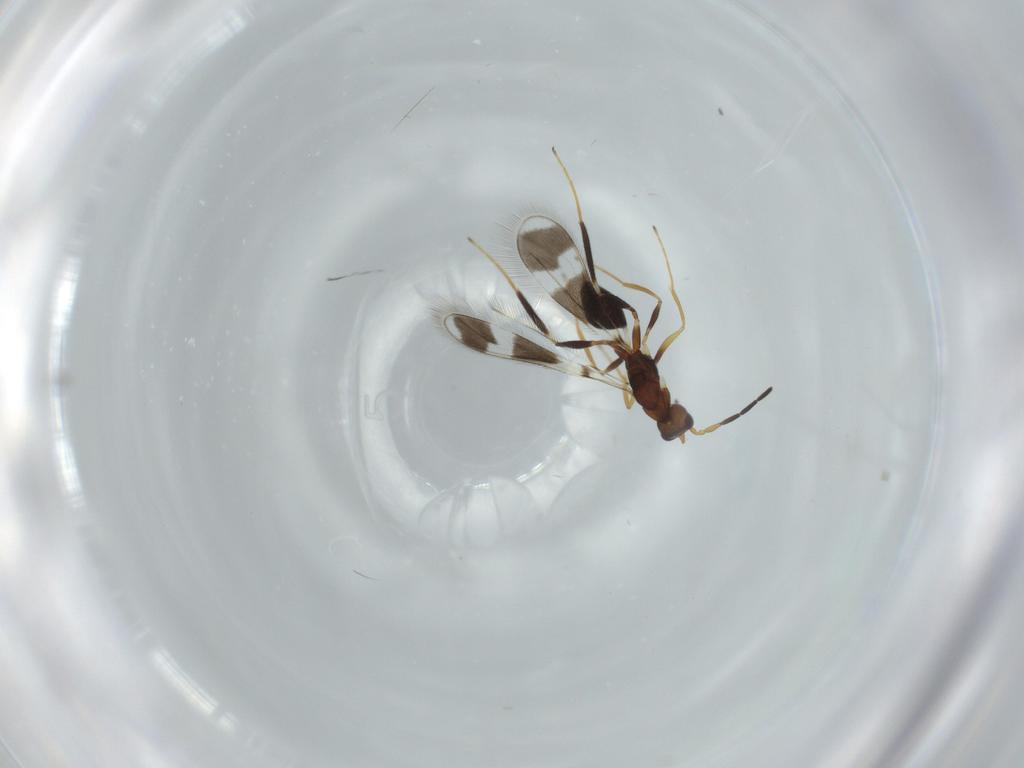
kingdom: Animalia
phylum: Arthropoda
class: Insecta
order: Hymenoptera
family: Mymaridae
